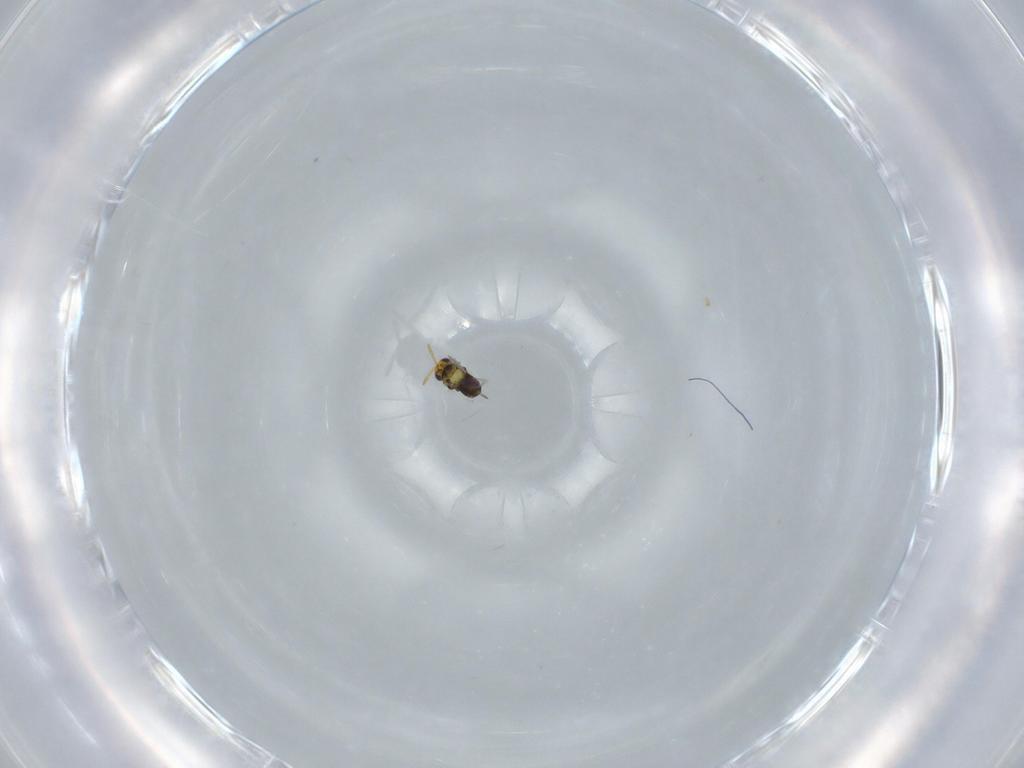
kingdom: Animalia
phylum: Arthropoda
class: Insecta
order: Hymenoptera
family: Aphelinidae
